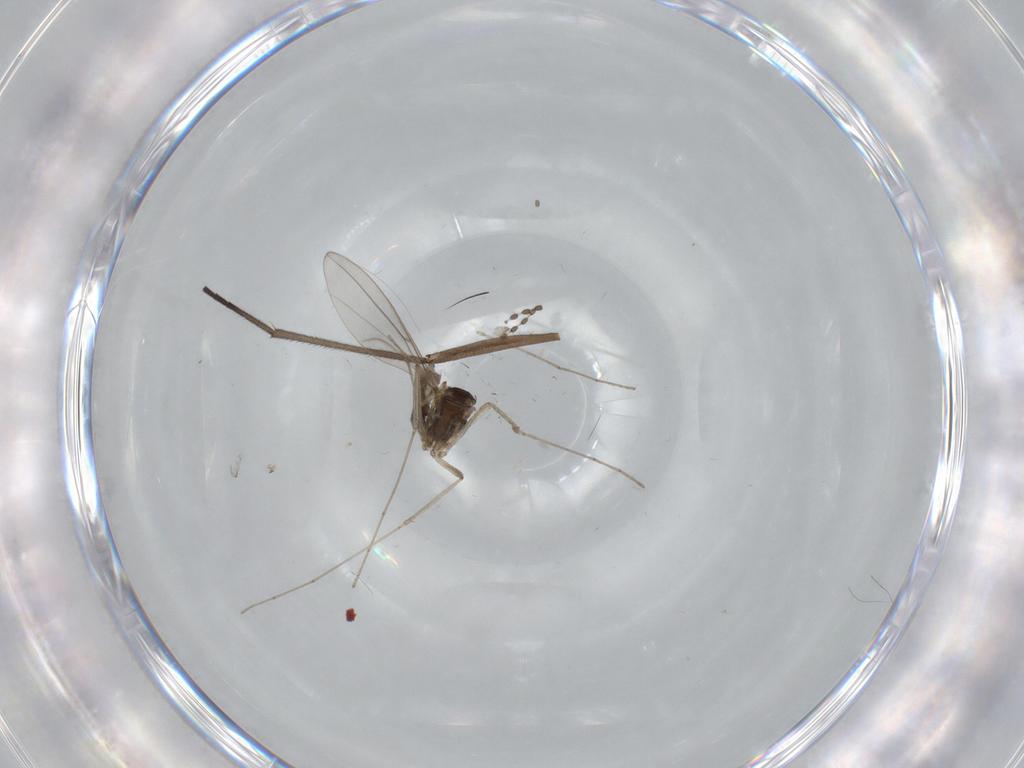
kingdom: Animalia
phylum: Arthropoda
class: Insecta
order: Diptera
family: Cecidomyiidae
